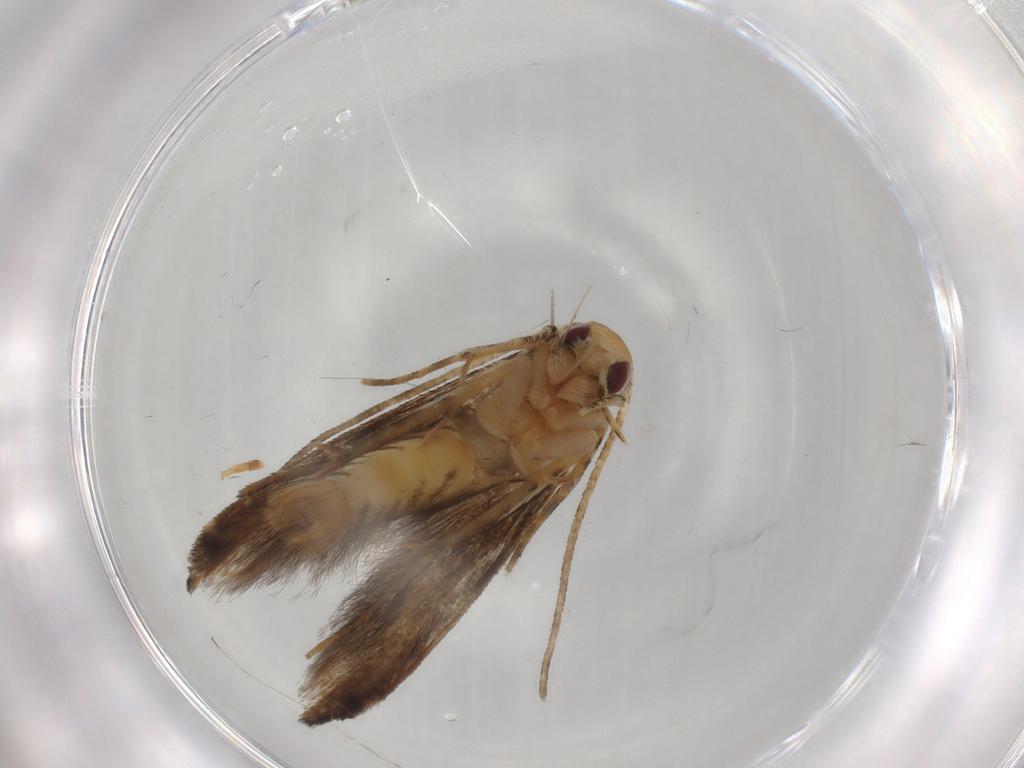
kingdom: Animalia
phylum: Arthropoda
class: Insecta
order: Lepidoptera
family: Momphidae
